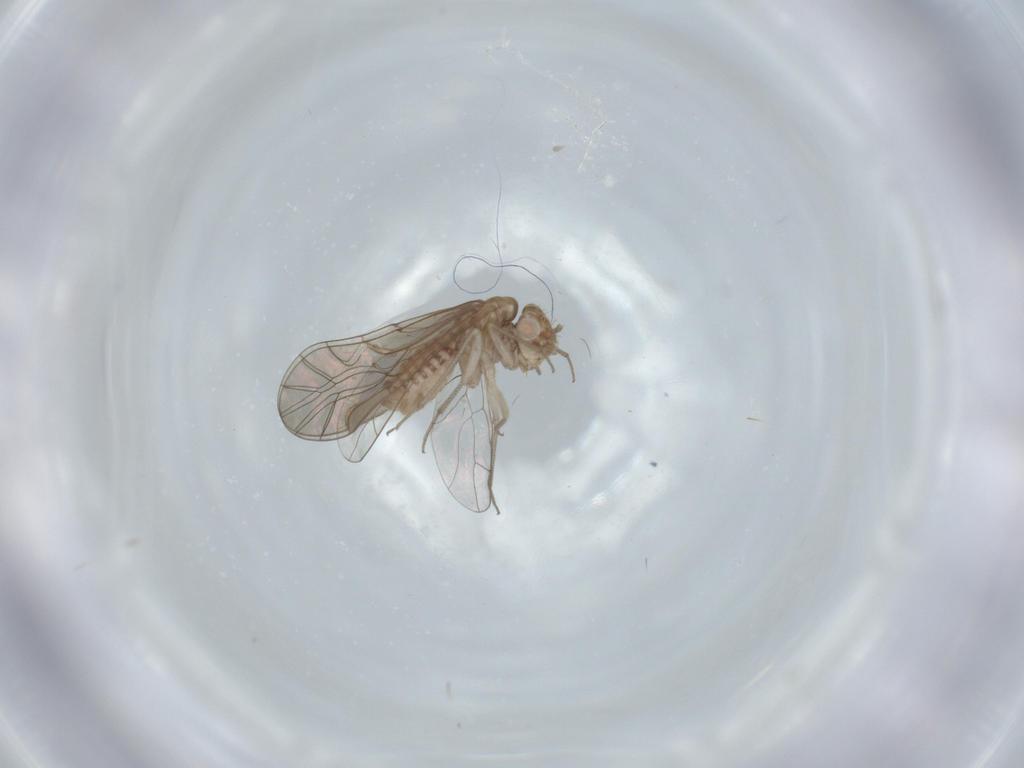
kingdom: Animalia
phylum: Arthropoda
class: Insecta
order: Psocodea
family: Lachesillidae
